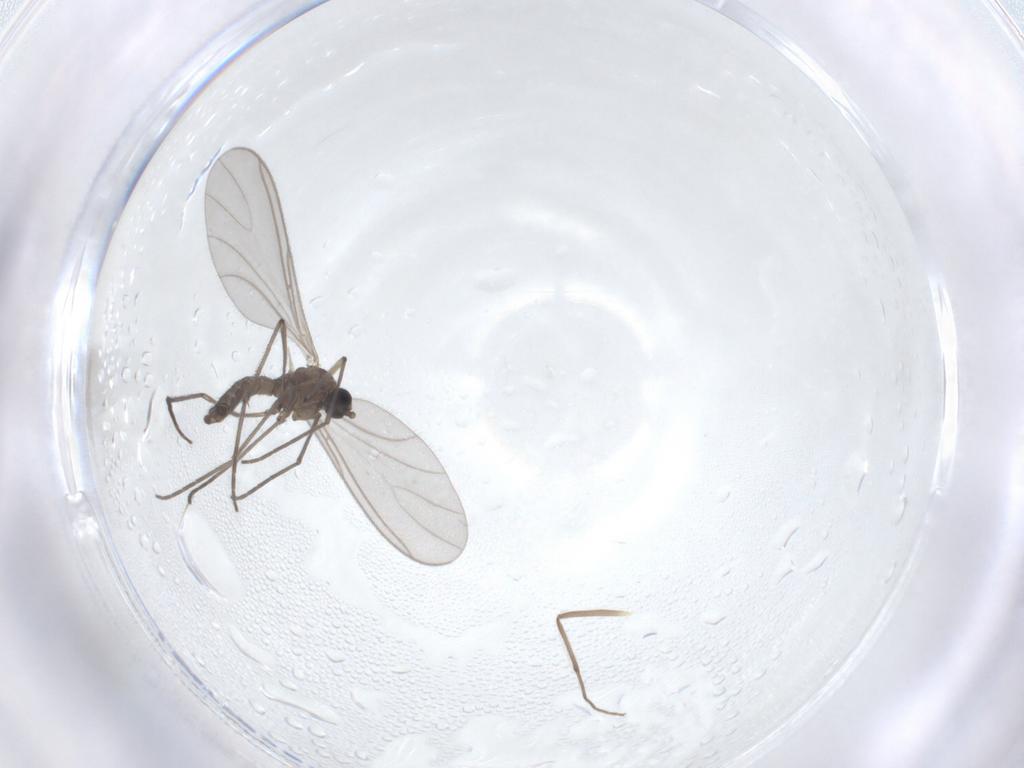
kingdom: Animalia
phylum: Arthropoda
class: Insecta
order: Diptera
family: Sciaridae
